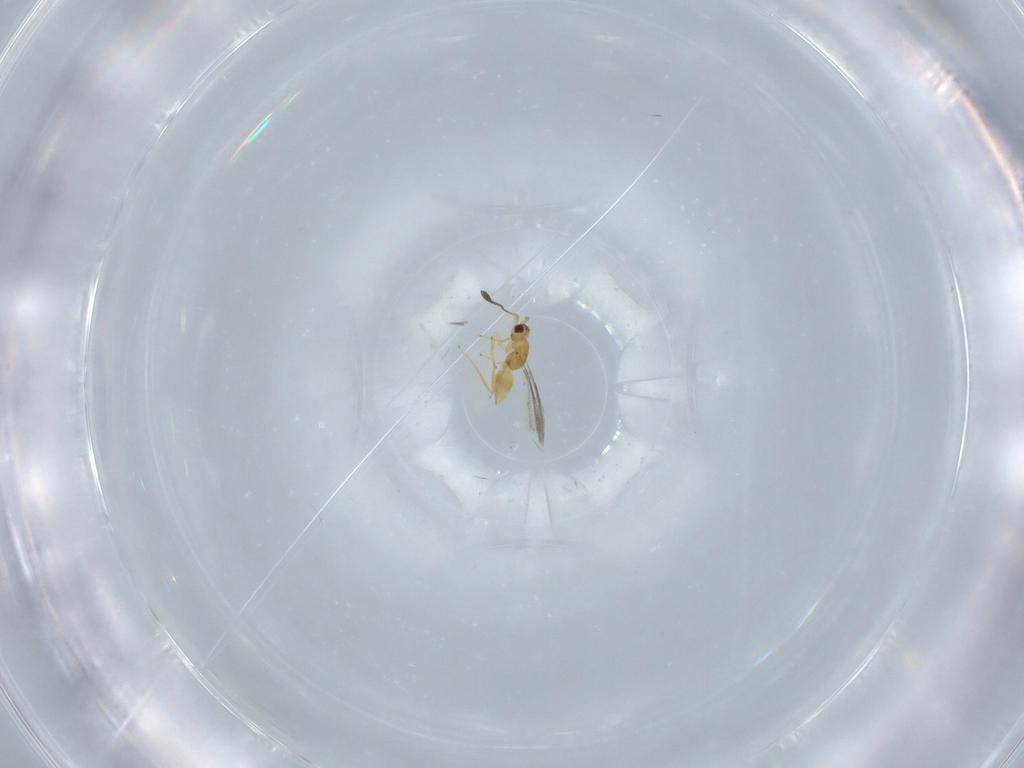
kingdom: Animalia
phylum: Arthropoda
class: Insecta
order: Hymenoptera
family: Mymaridae
